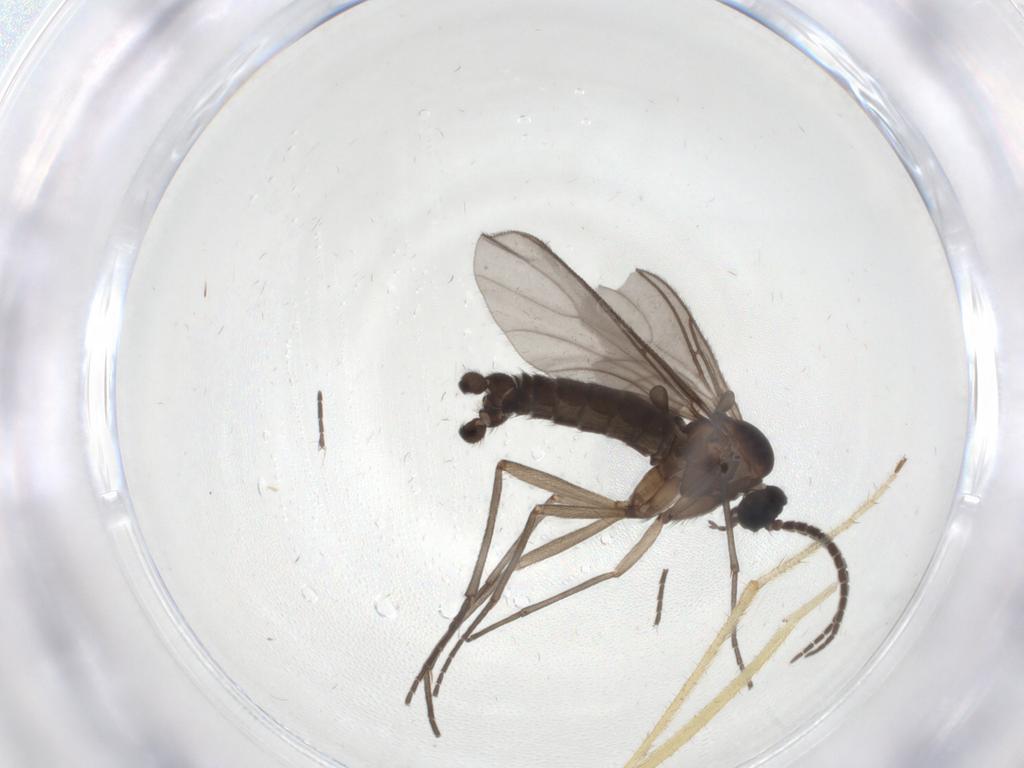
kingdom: Animalia
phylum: Arthropoda
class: Insecta
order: Diptera
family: Sciaridae
